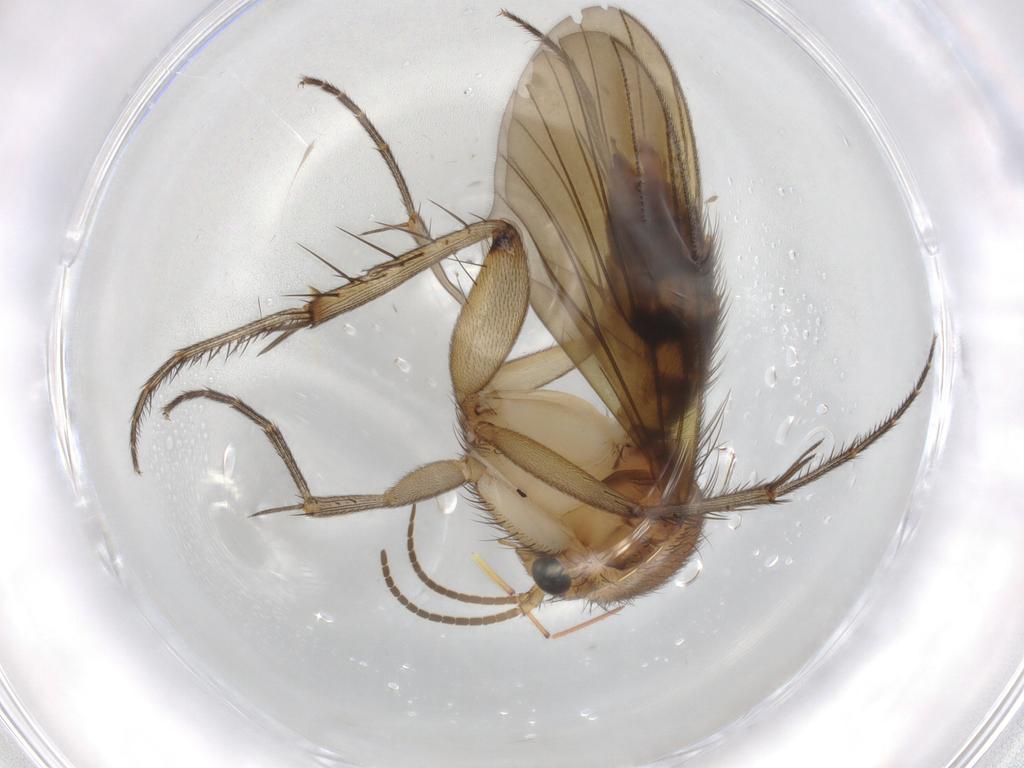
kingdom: Animalia
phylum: Arthropoda
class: Insecta
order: Diptera
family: Mycetophilidae
